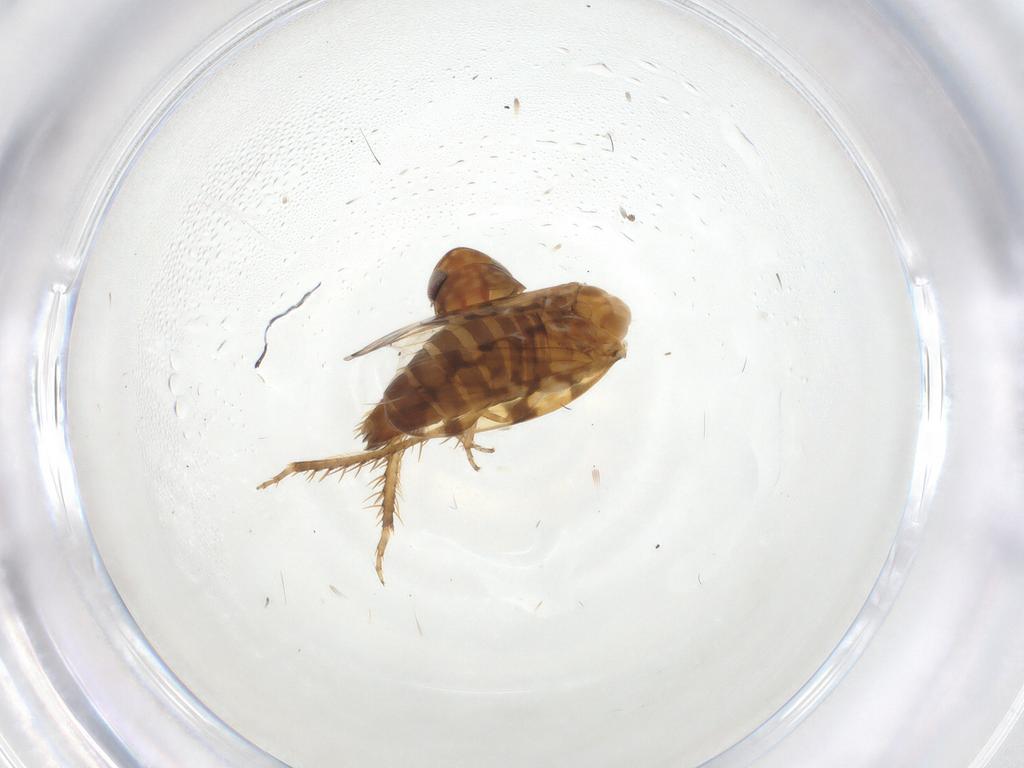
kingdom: Animalia
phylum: Arthropoda
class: Insecta
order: Hemiptera
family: Cicadellidae
